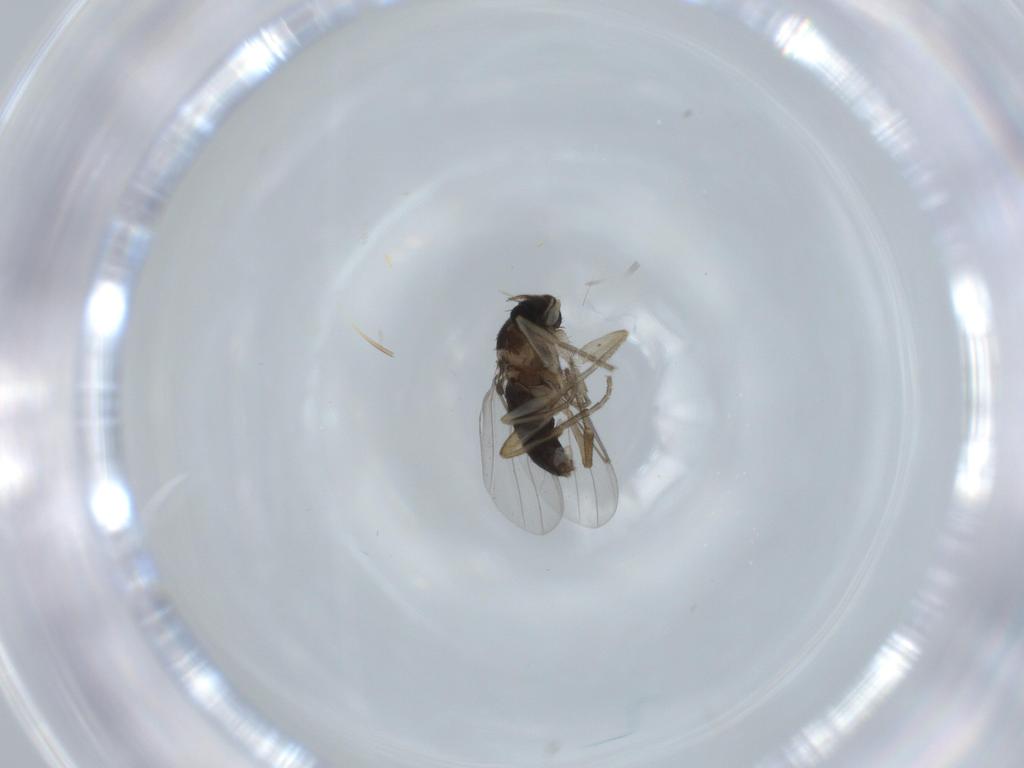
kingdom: Animalia
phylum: Arthropoda
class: Insecta
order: Diptera
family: Phoridae
